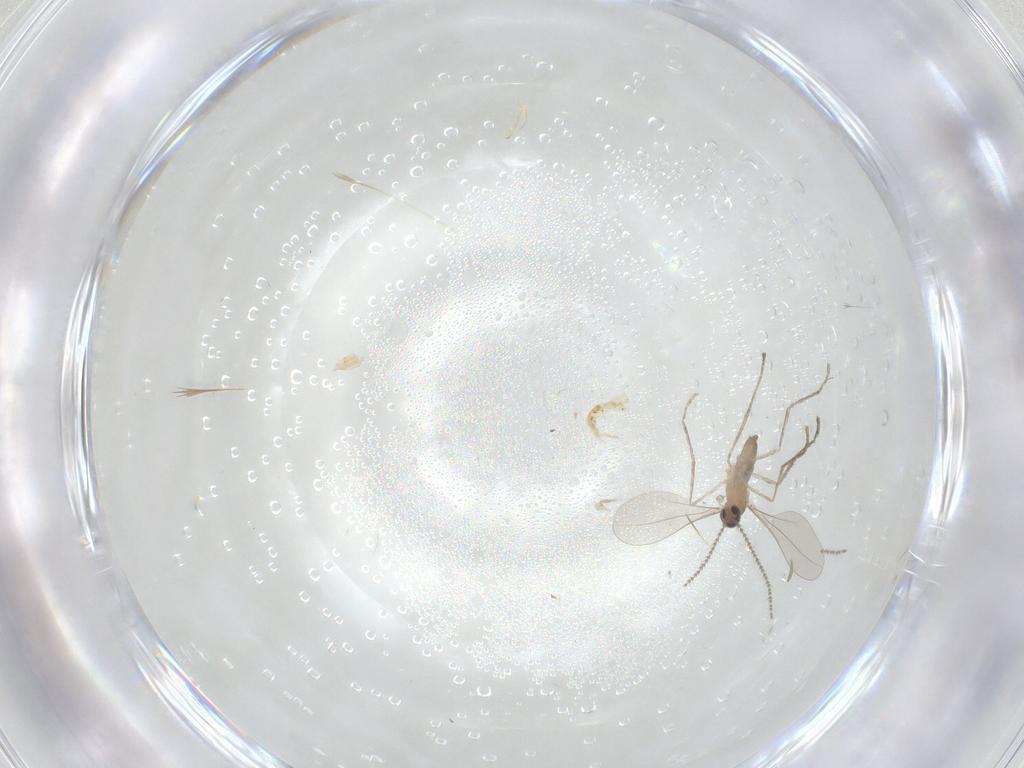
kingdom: Animalia
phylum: Arthropoda
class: Insecta
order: Diptera
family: Cecidomyiidae
